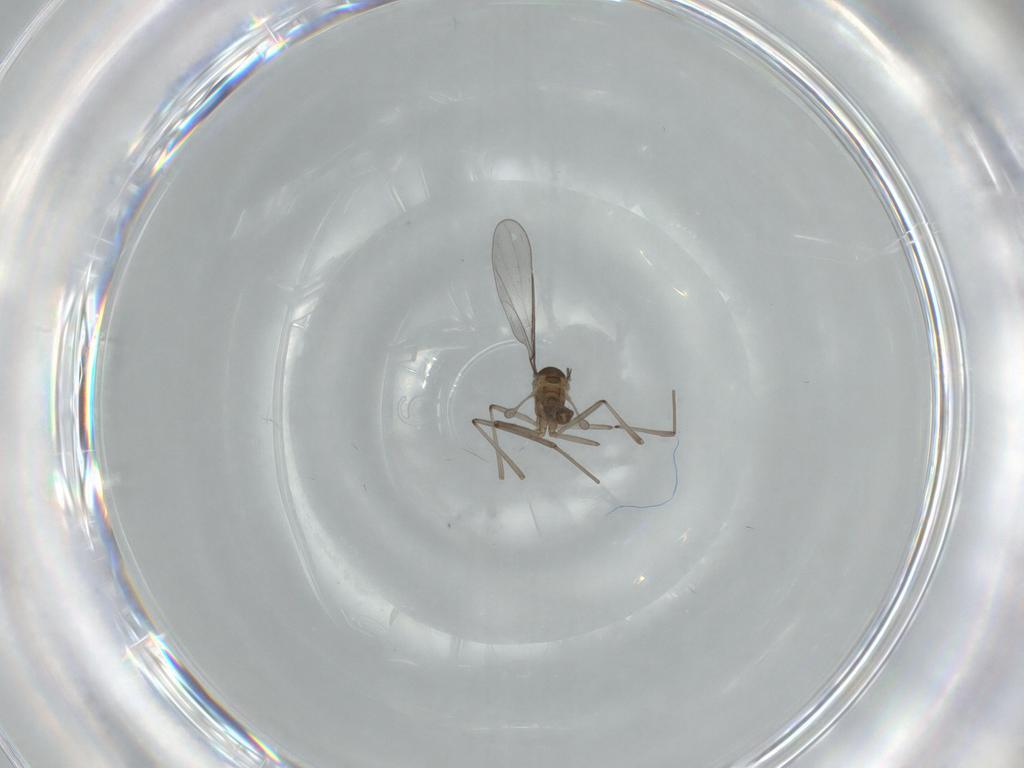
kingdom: Animalia
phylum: Arthropoda
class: Insecta
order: Diptera
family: Cecidomyiidae
